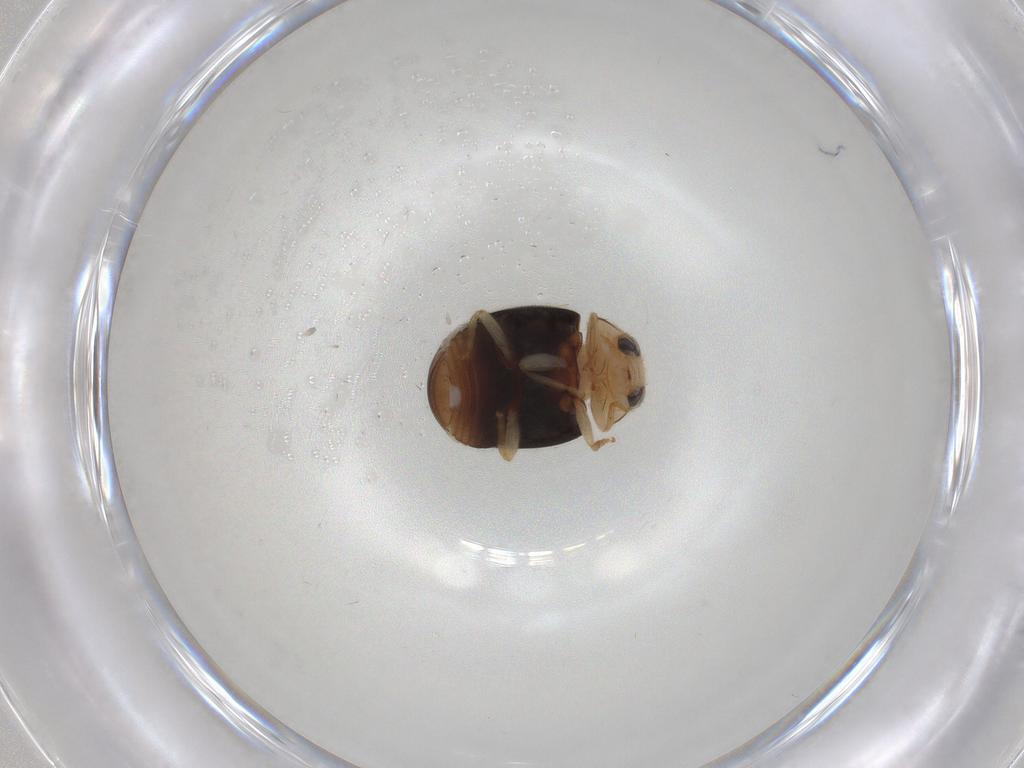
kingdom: Animalia
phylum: Arthropoda
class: Insecta
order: Coleoptera
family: Coccinellidae
